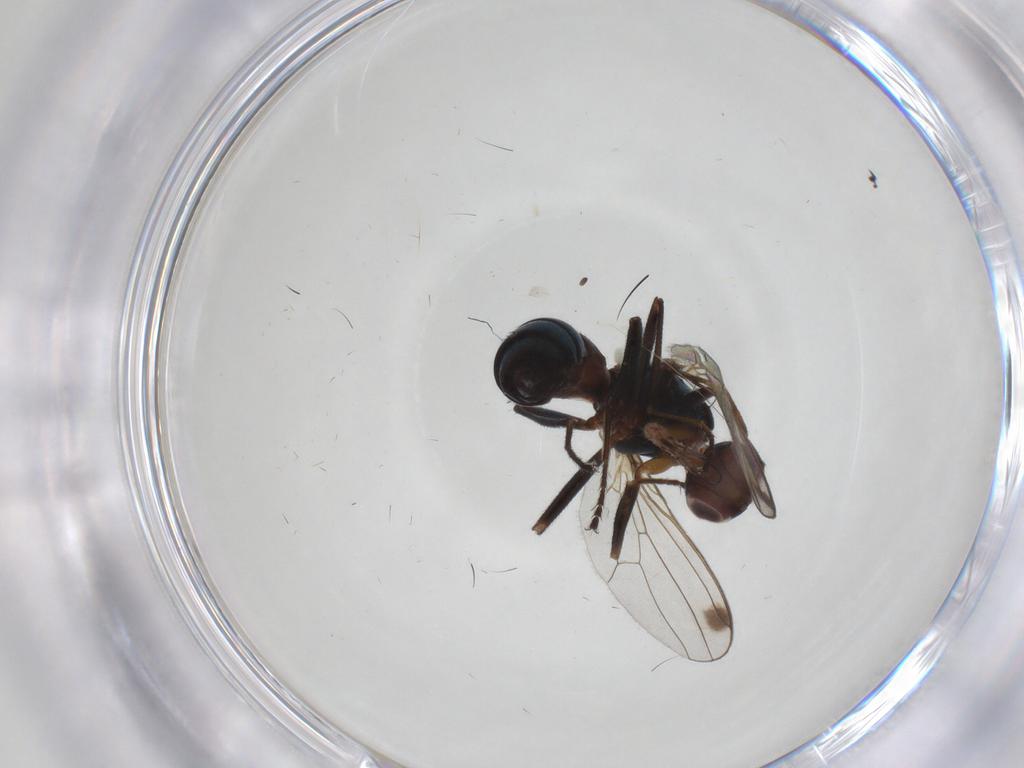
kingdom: Animalia
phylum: Arthropoda
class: Insecta
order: Diptera
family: Sepsidae
